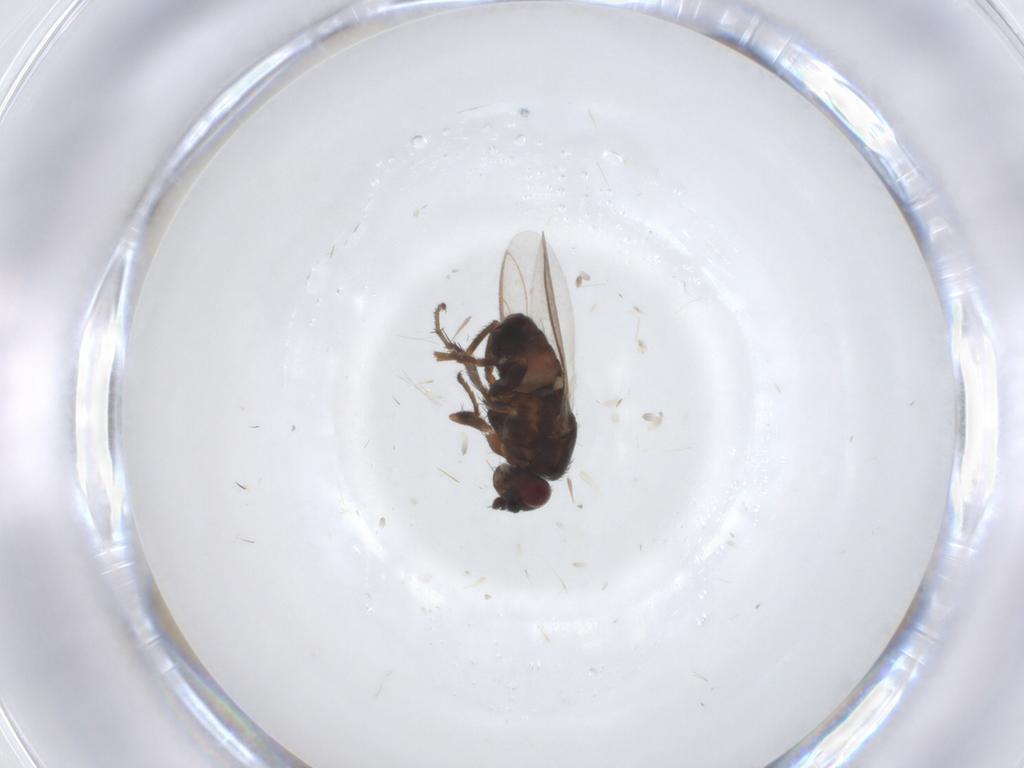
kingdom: Animalia
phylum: Arthropoda
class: Insecta
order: Diptera
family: Sphaeroceridae
